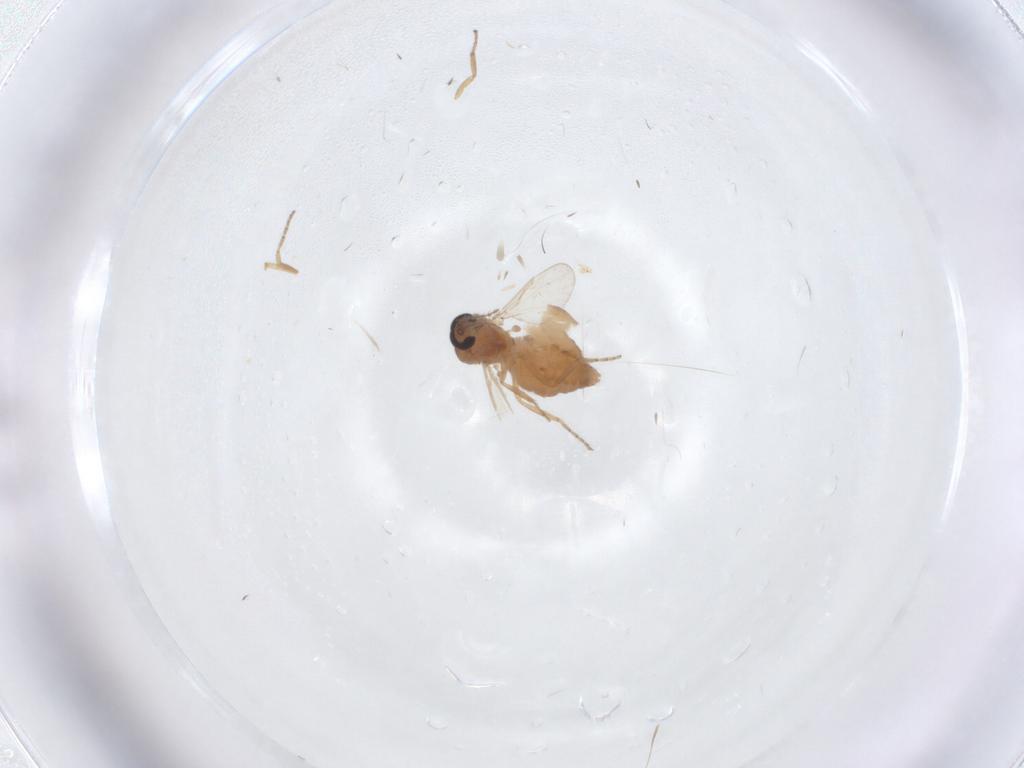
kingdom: Animalia
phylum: Arthropoda
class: Insecta
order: Diptera
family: Ceratopogonidae
